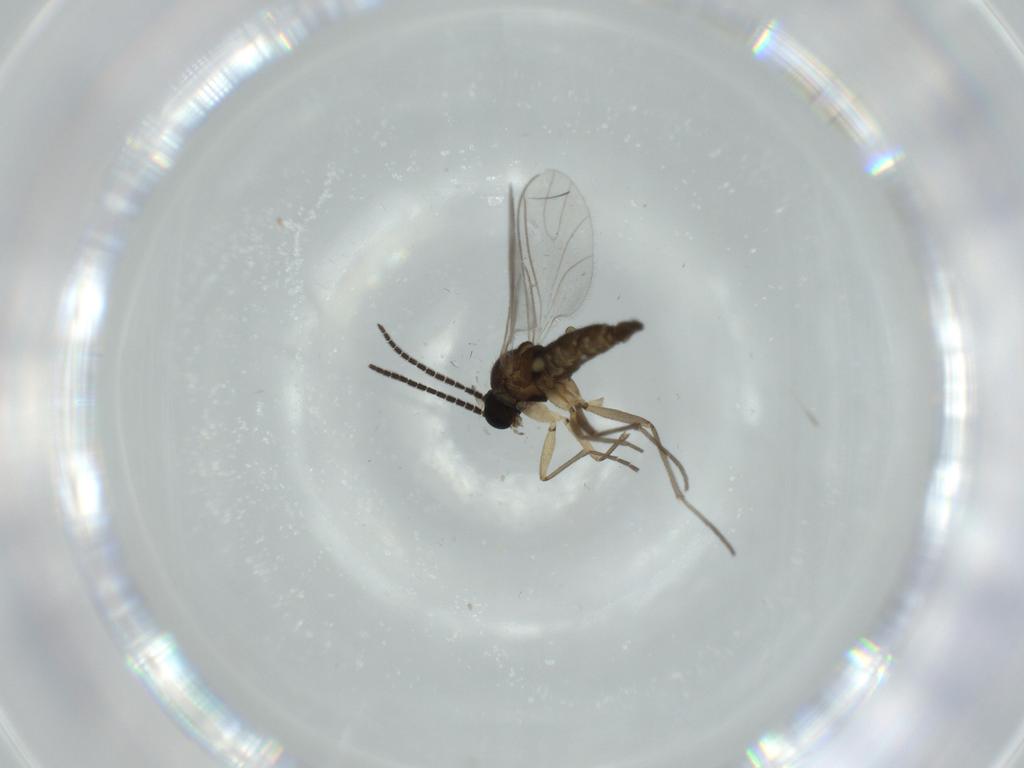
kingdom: Animalia
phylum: Arthropoda
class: Insecta
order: Diptera
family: Sciaridae
